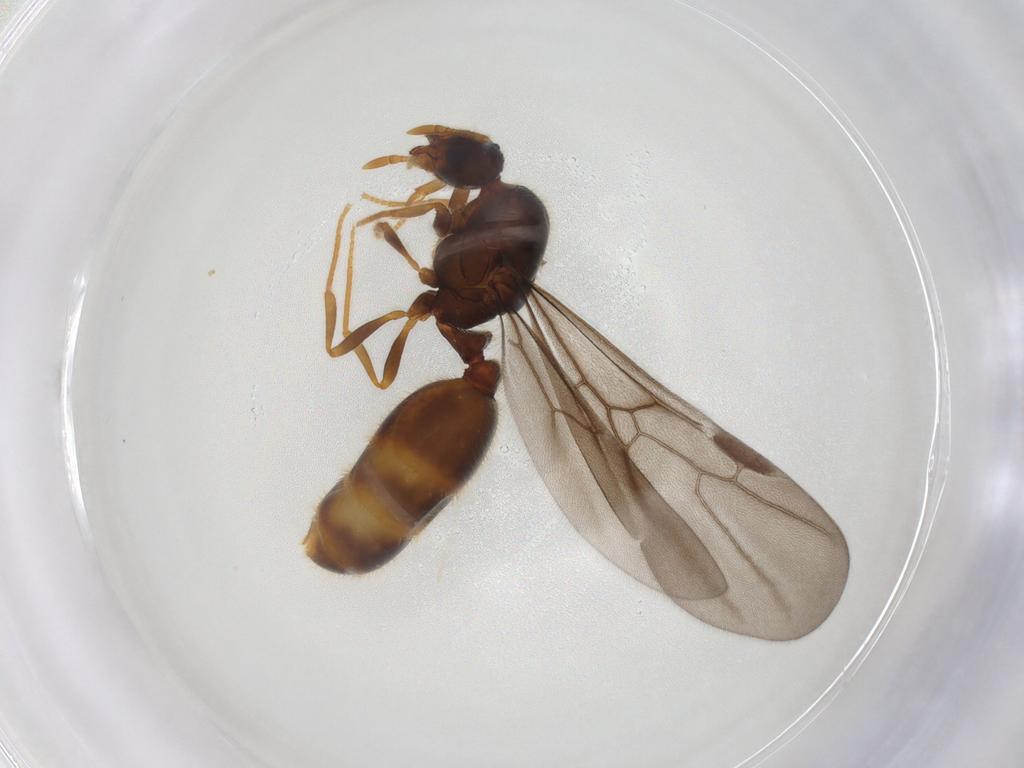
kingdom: Animalia
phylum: Arthropoda
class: Insecta
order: Hymenoptera
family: Formicidae
